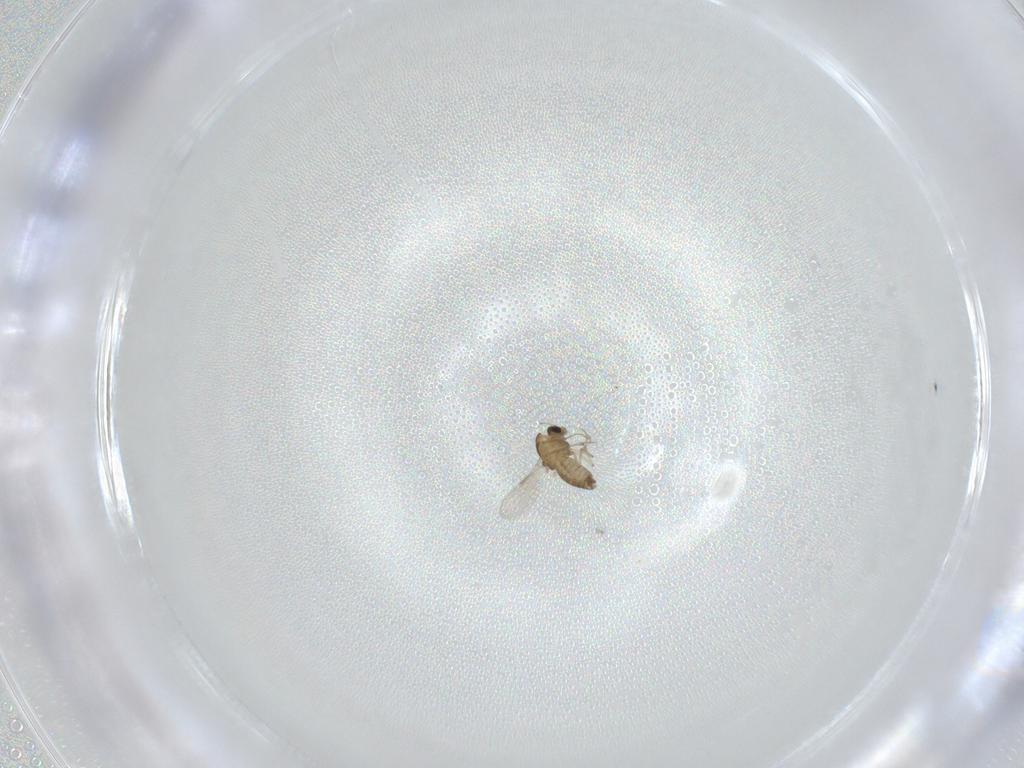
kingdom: Animalia
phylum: Arthropoda
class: Insecta
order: Diptera
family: Chironomidae
